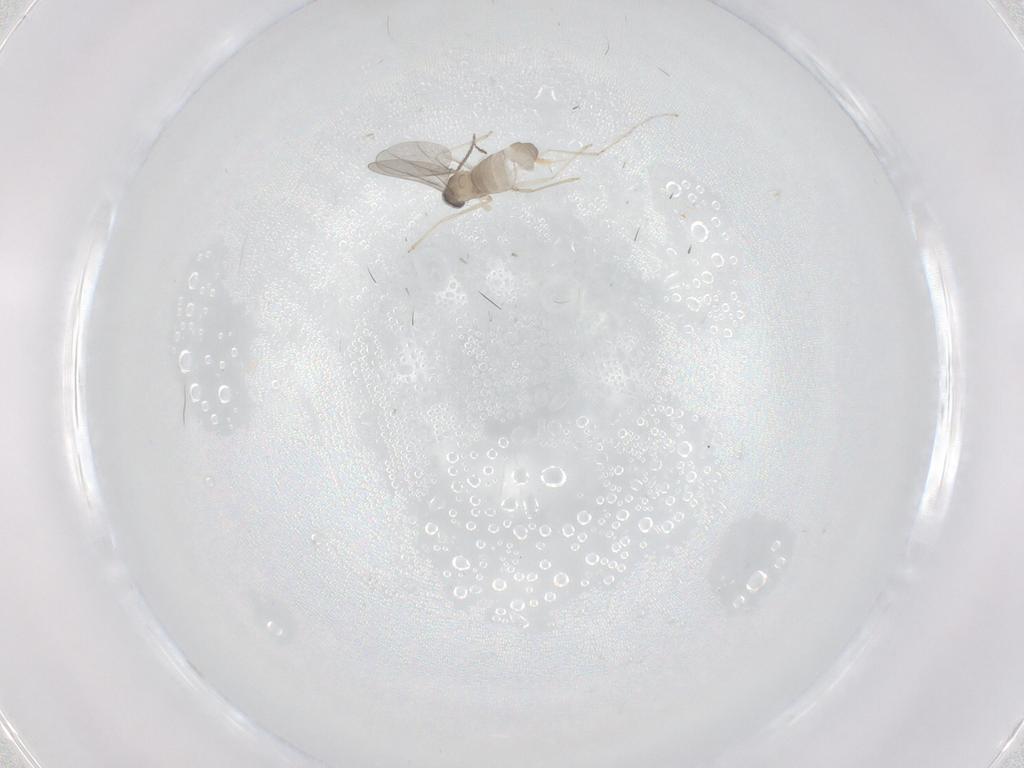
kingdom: Animalia
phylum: Arthropoda
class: Insecta
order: Diptera
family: Cecidomyiidae
